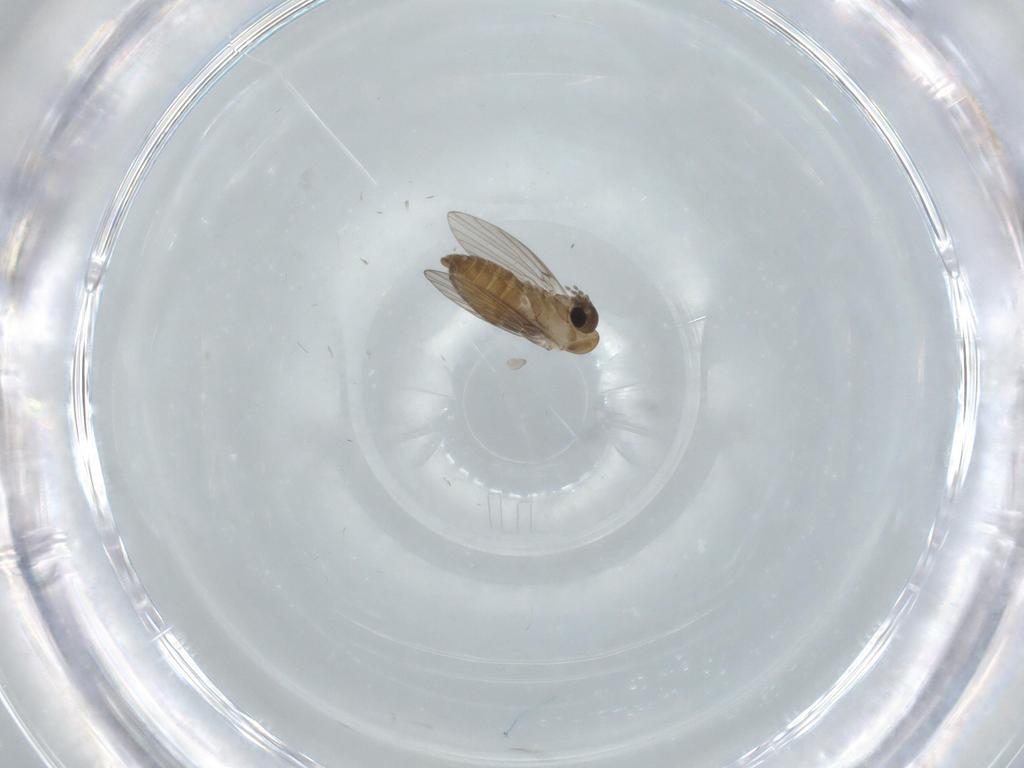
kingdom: Animalia
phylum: Arthropoda
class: Insecta
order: Diptera
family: Psychodidae
